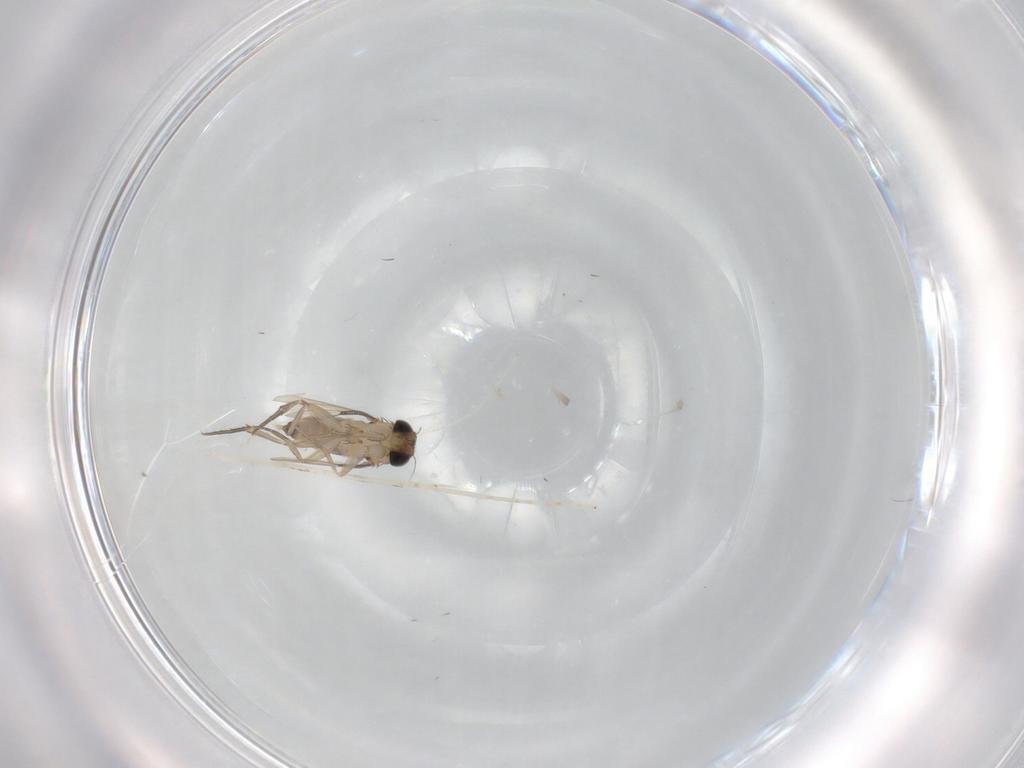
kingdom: Animalia
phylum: Arthropoda
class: Insecta
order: Diptera
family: Phoridae
